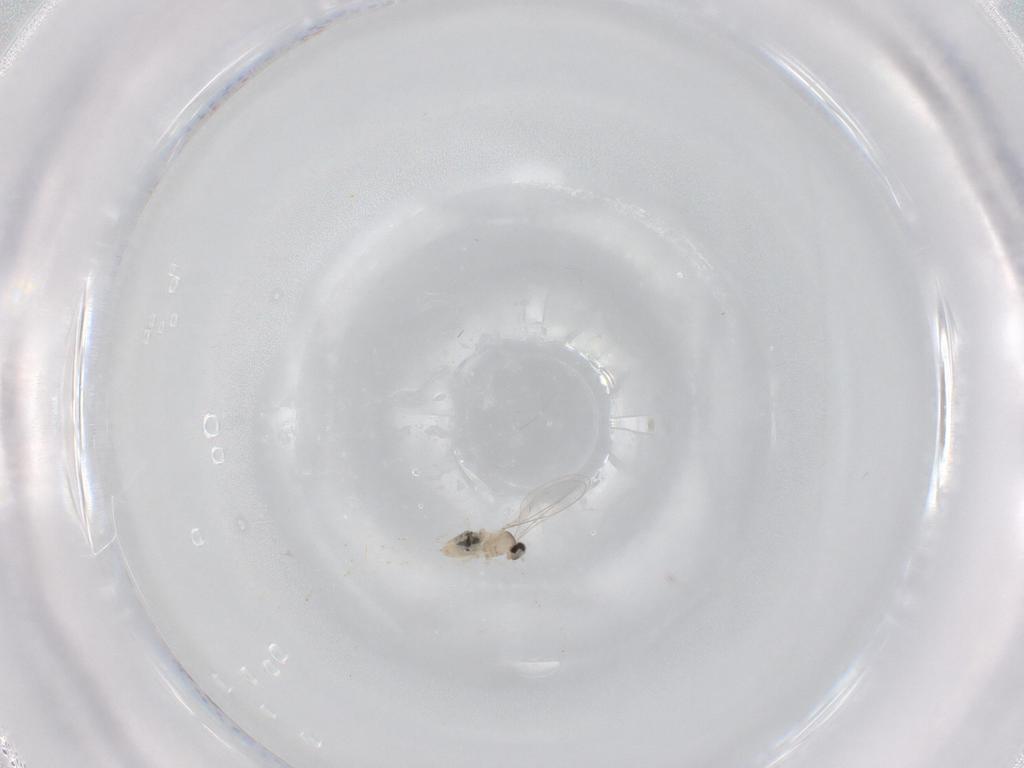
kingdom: Animalia
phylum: Arthropoda
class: Insecta
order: Diptera
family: Cecidomyiidae
